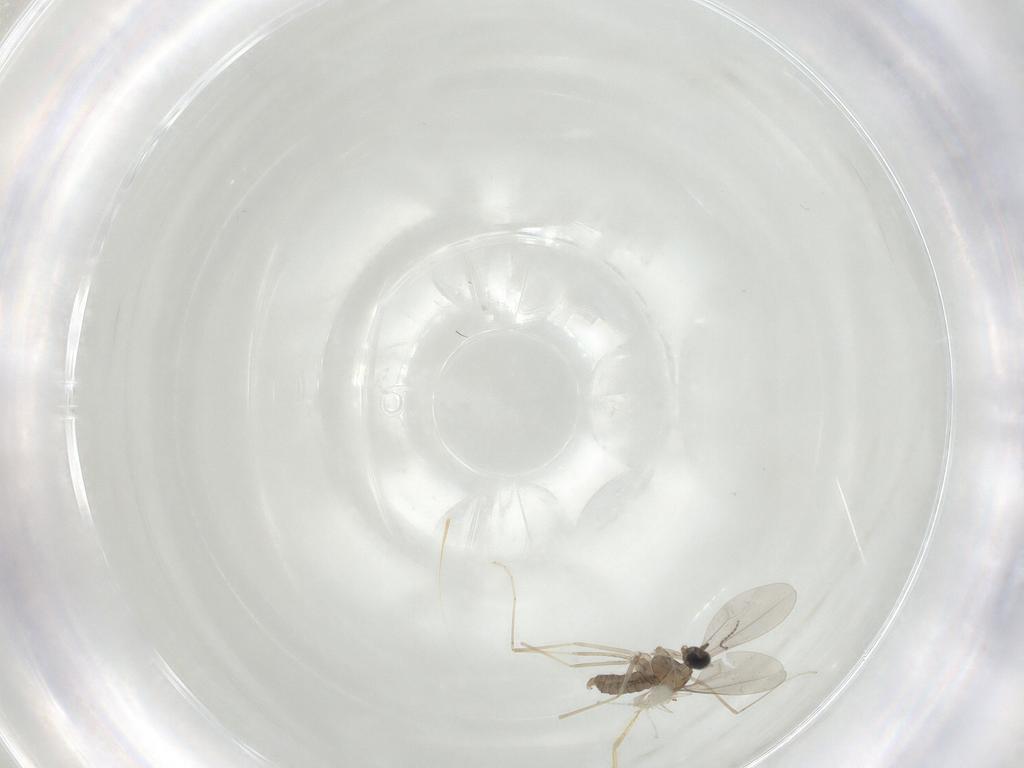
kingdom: Animalia
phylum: Arthropoda
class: Insecta
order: Diptera
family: Cecidomyiidae
